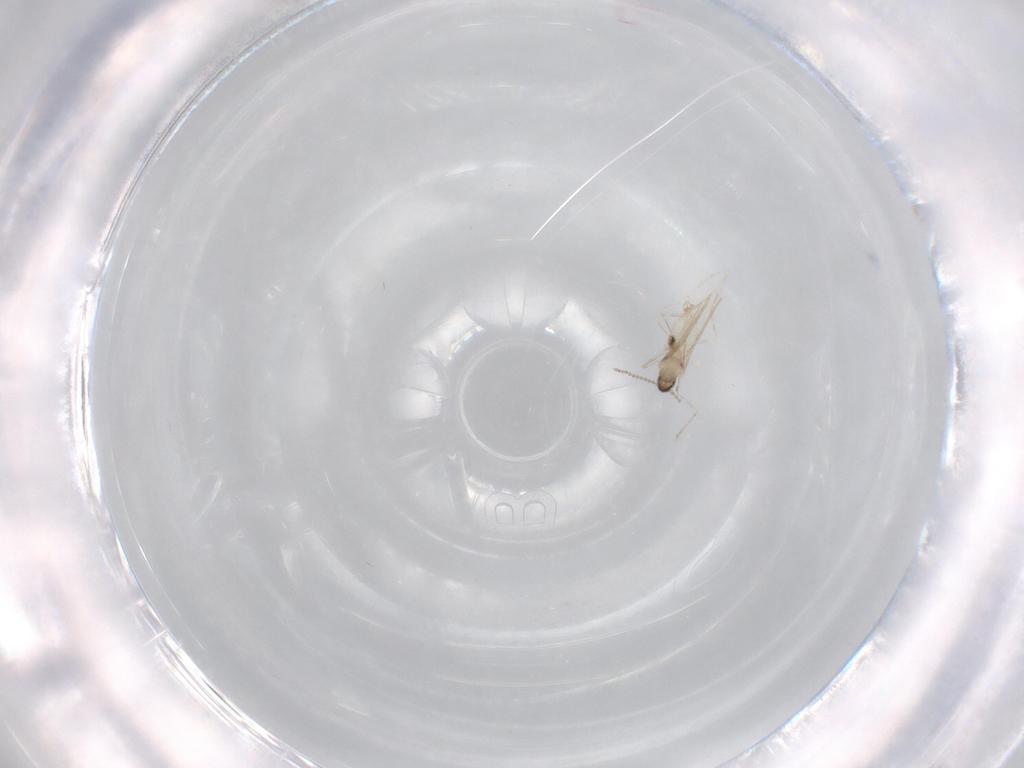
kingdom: Animalia
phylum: Arthropoda
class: Insecta
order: Diptera
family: Cecidomyiidae
